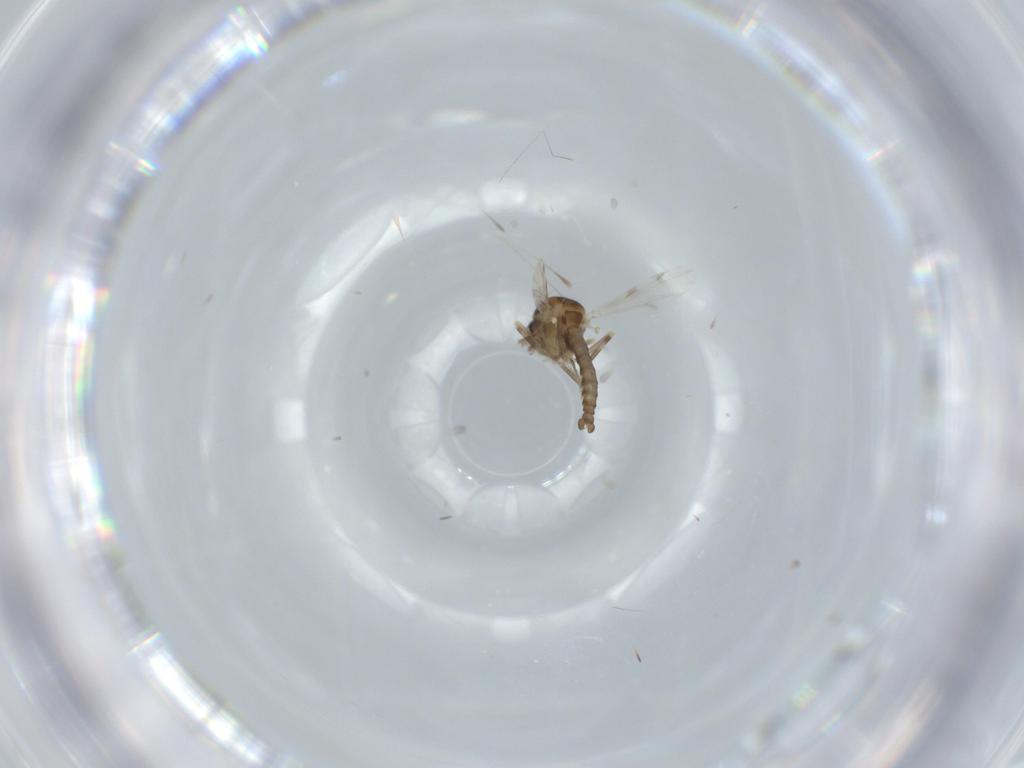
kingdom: Animalia
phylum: Arthropoda
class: Insecta
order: Diptera
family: Ceratopogonidae
